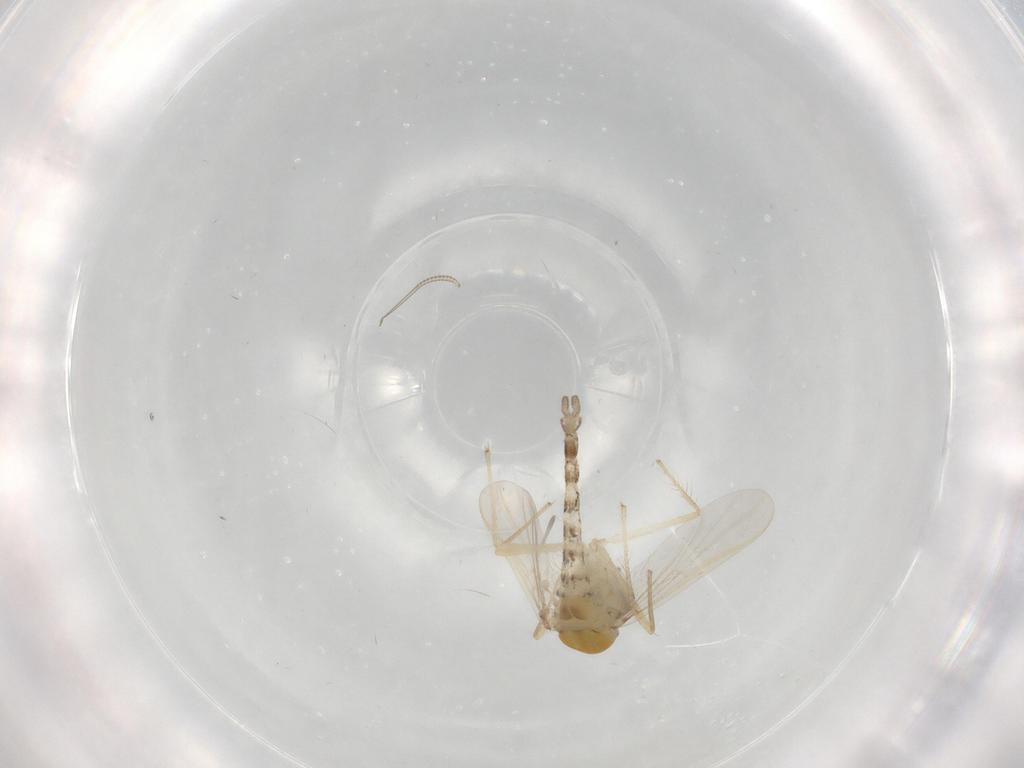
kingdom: Animalia
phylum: Arthropoda
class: Insecta
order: Diptera
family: Chironomidae
